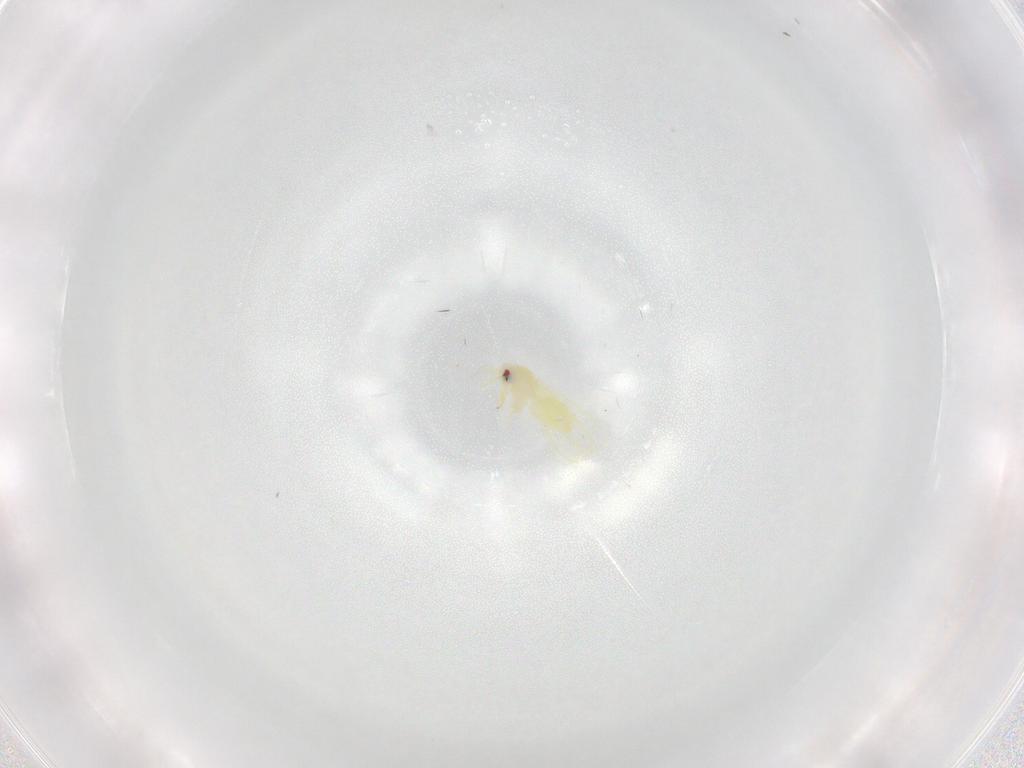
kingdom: Animalia
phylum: Arthropoda
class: Insecta
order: Hemiptera
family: Aleyrodidae
